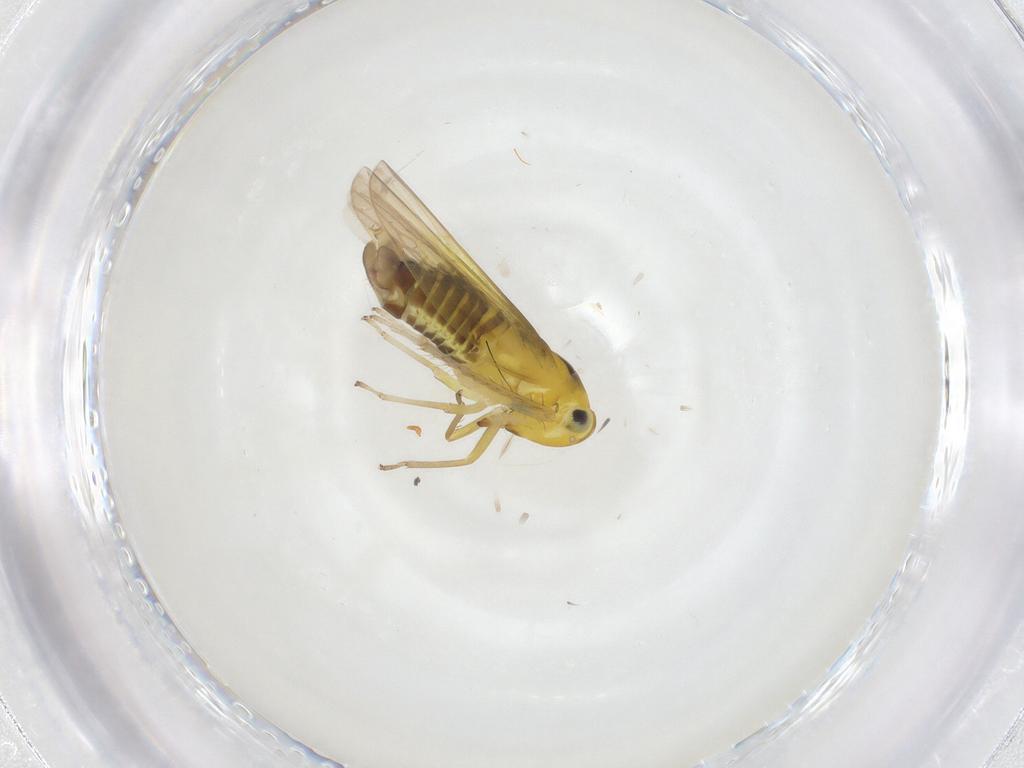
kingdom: Animalia
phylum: Arthropoda
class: Insecta
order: Hemiptera
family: Cicadellidae
